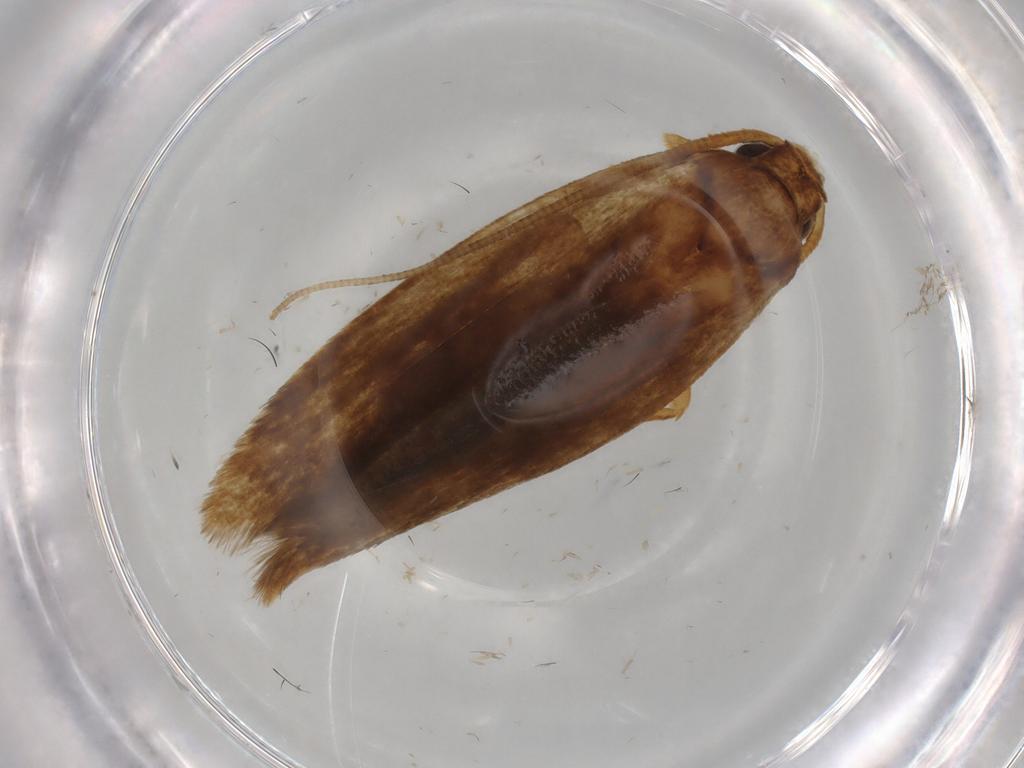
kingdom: Animalia
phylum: Arthropoda
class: Insecta
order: Lepidoptera
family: Tineidae
